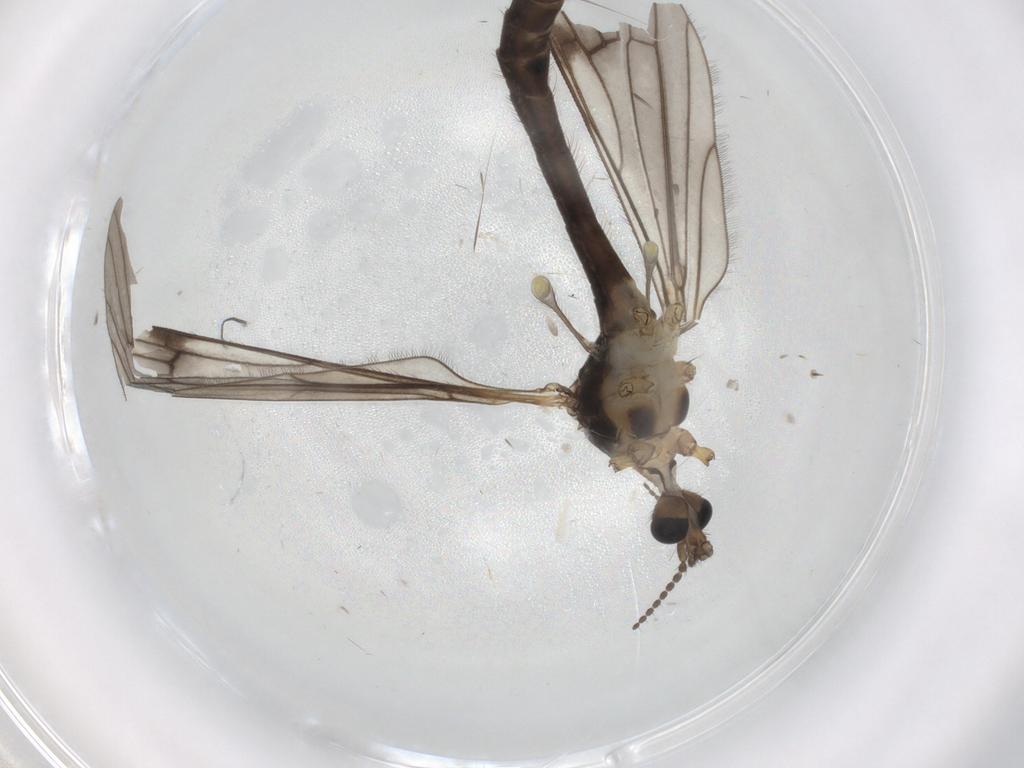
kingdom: Animalia
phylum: Arthropoda
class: Insecta
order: Diptera
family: Limoniidae
